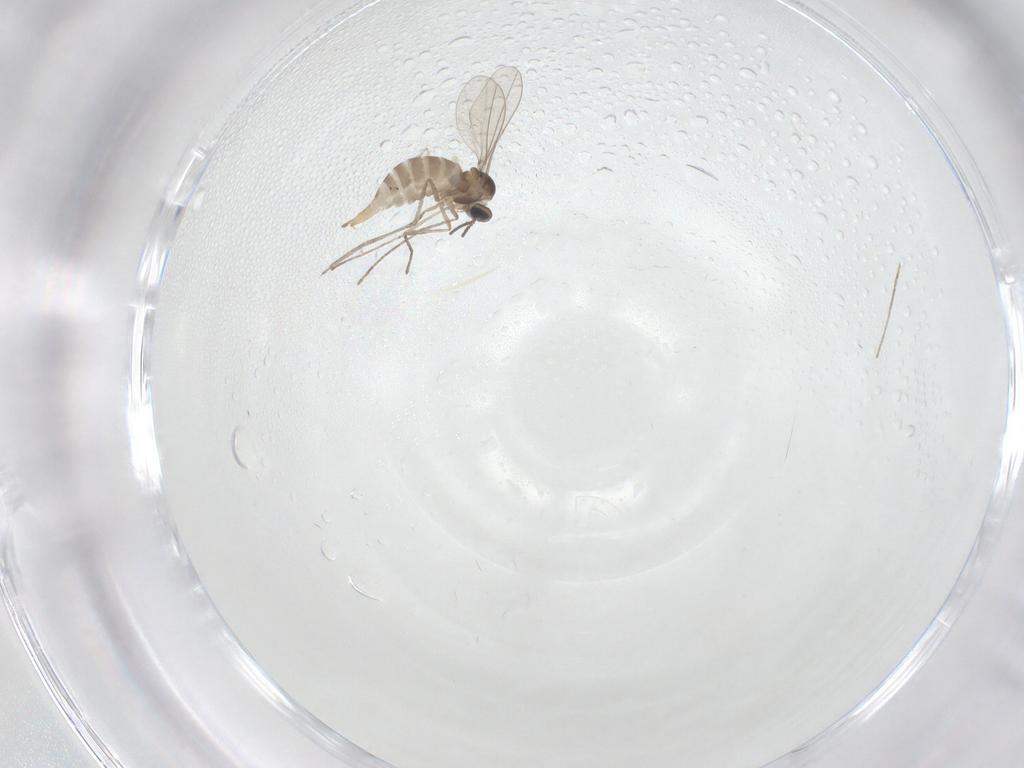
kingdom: Animalia
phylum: Arthropoda
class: Insecta
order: Diptera
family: Cecidomyiidae
